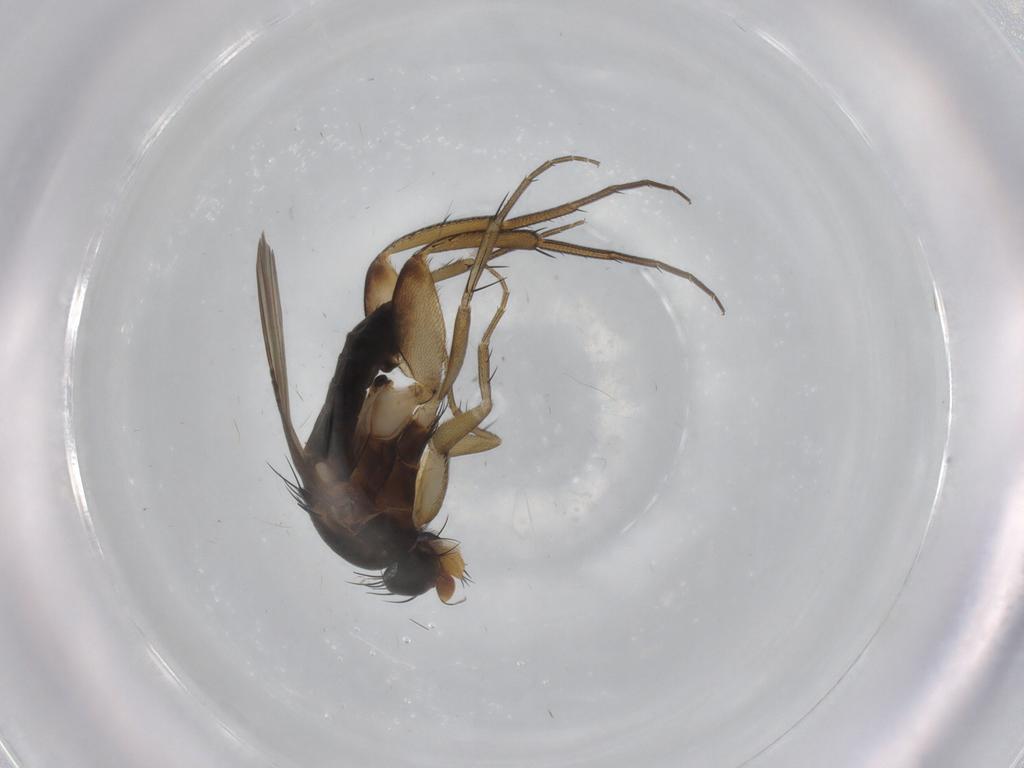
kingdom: Animalia
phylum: Arthropoda
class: Insecta
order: Diptera
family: Phoridae
